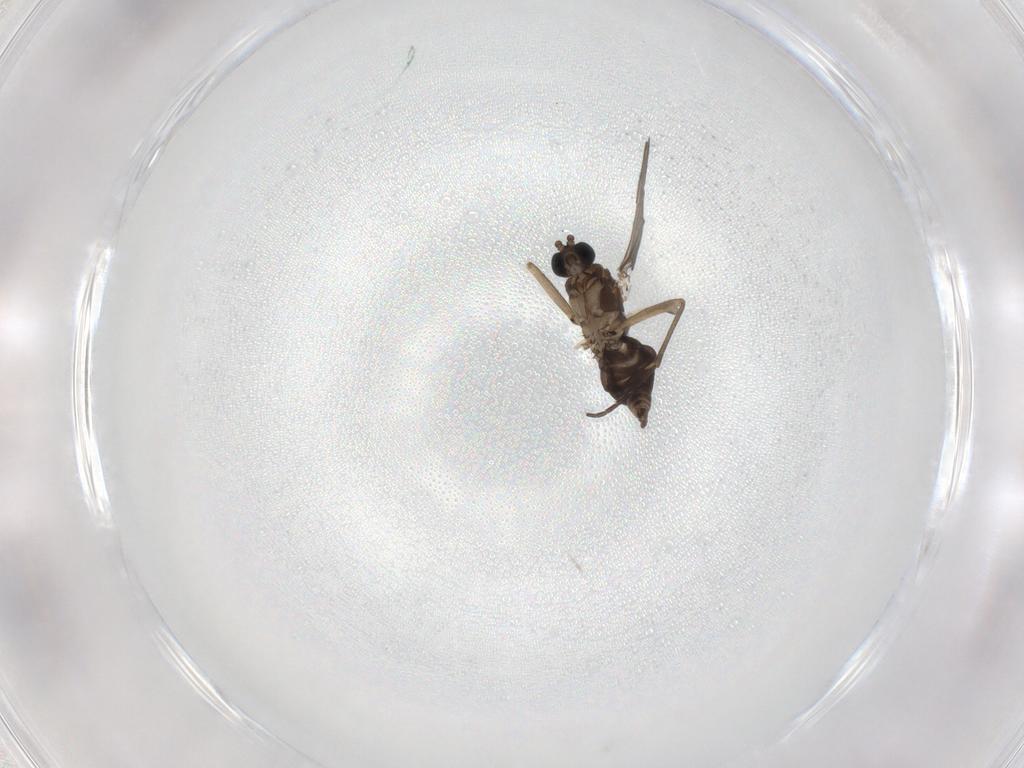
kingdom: Animalia
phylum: Arthropoda
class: Insecta
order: Diptera
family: Sciaridae
